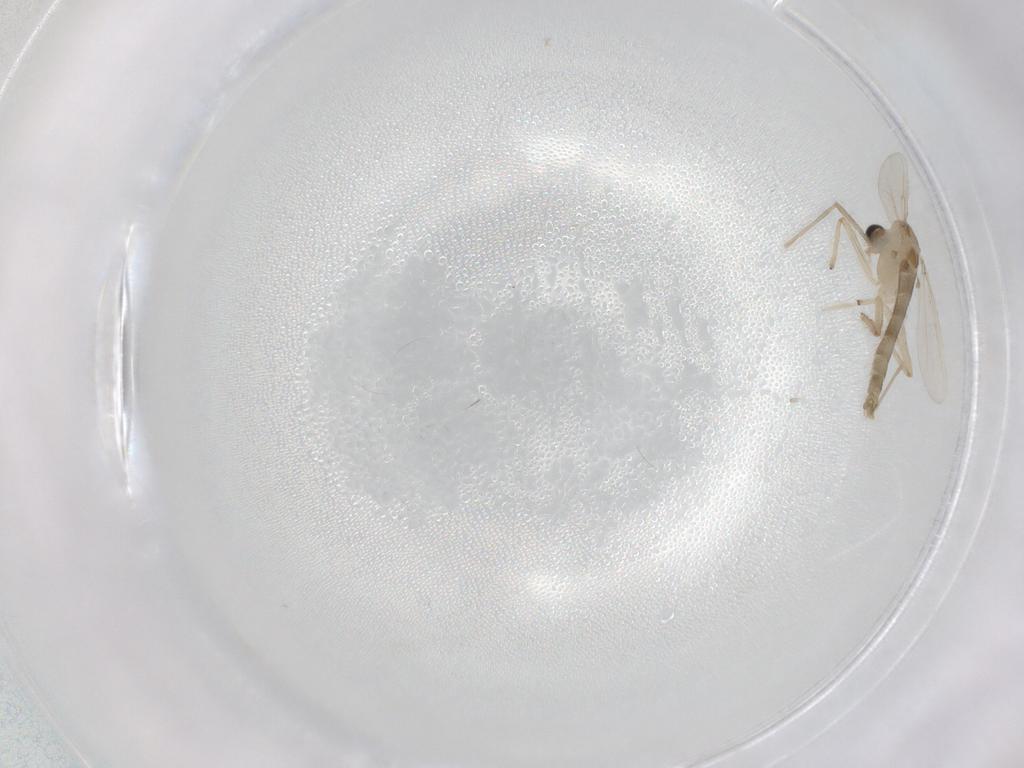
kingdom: Animalia
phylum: Arthropoda
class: Insecta
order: Diptera
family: Chironomidae
